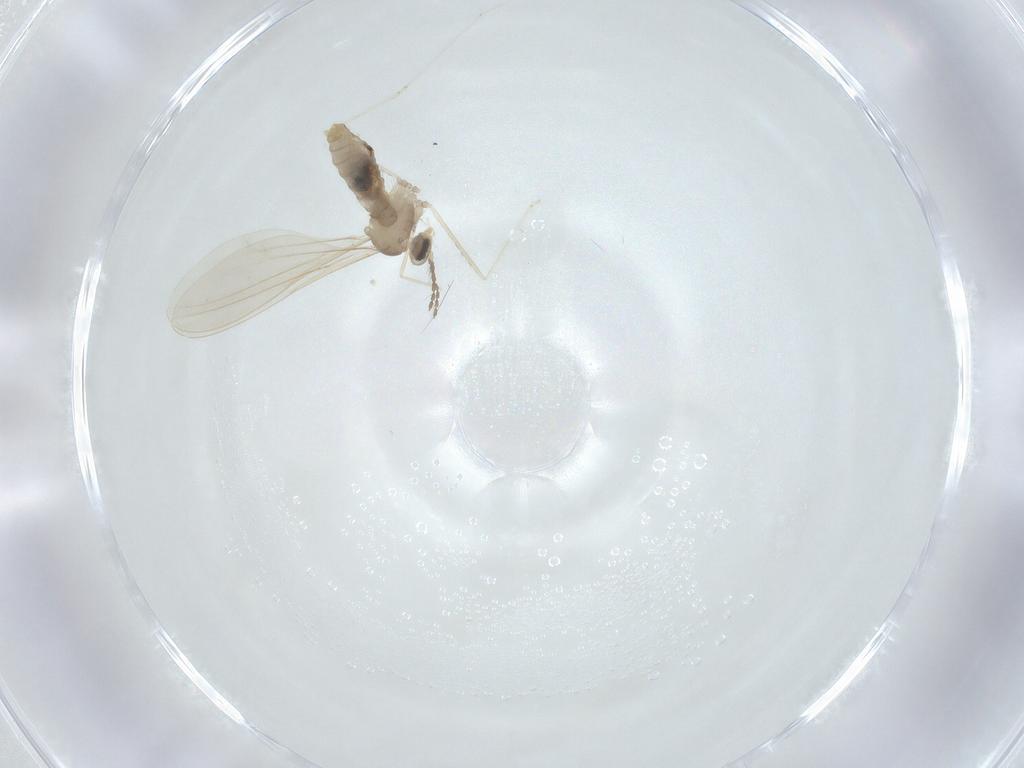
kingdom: Animalia
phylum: Arthropoda
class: Insecta
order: Diptera
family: Cecidomyiidae
